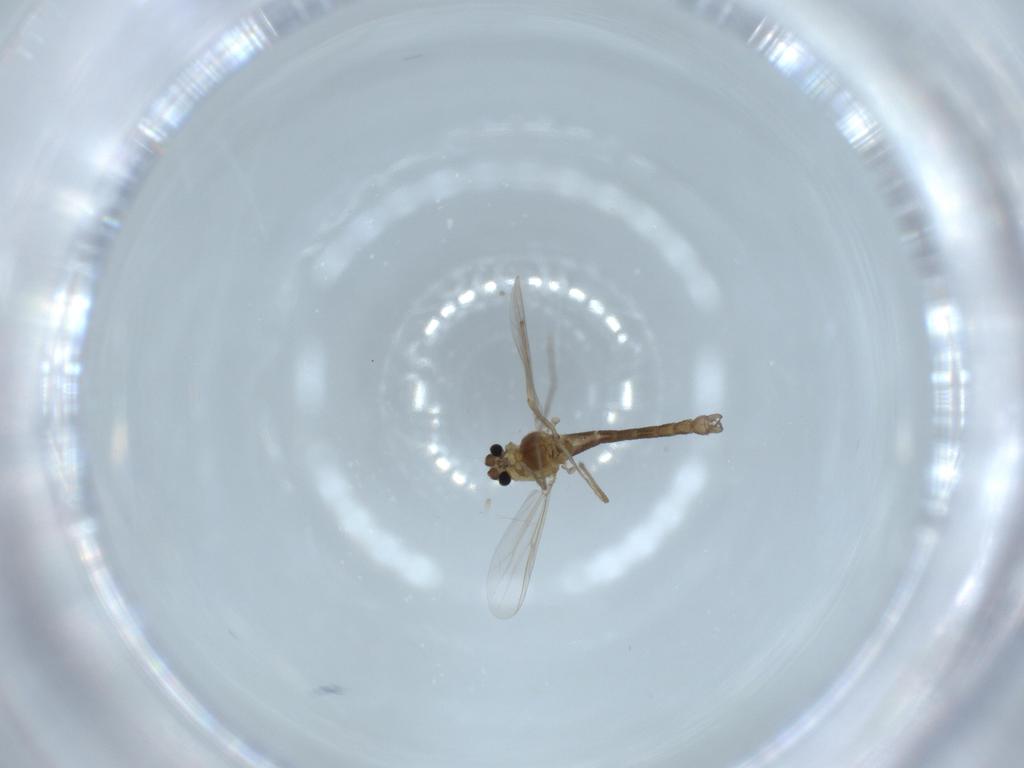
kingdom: Animalia
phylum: Arthropoda
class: Insecta
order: Diptera
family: Chironomidae
